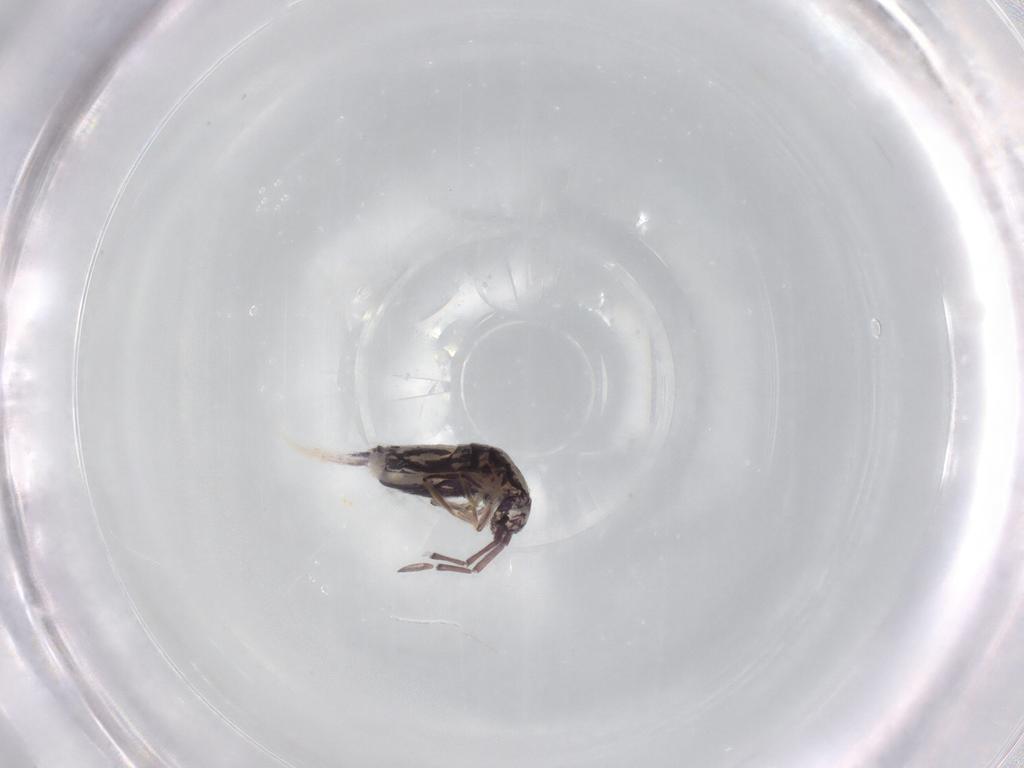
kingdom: Animalia
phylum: Arthropoda
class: Collembola
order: Entomobryomorpha
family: Entomobryidae
